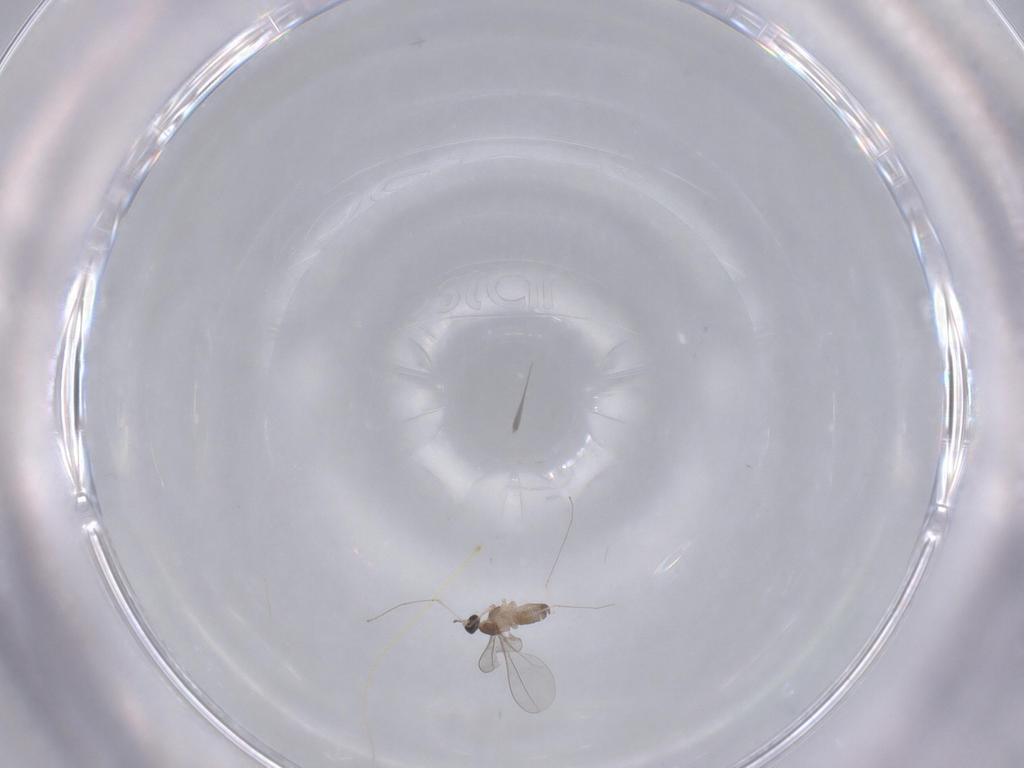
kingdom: Animalia
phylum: Arthropoda
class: Insecta
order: Diptera
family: Cecidomyiidae
